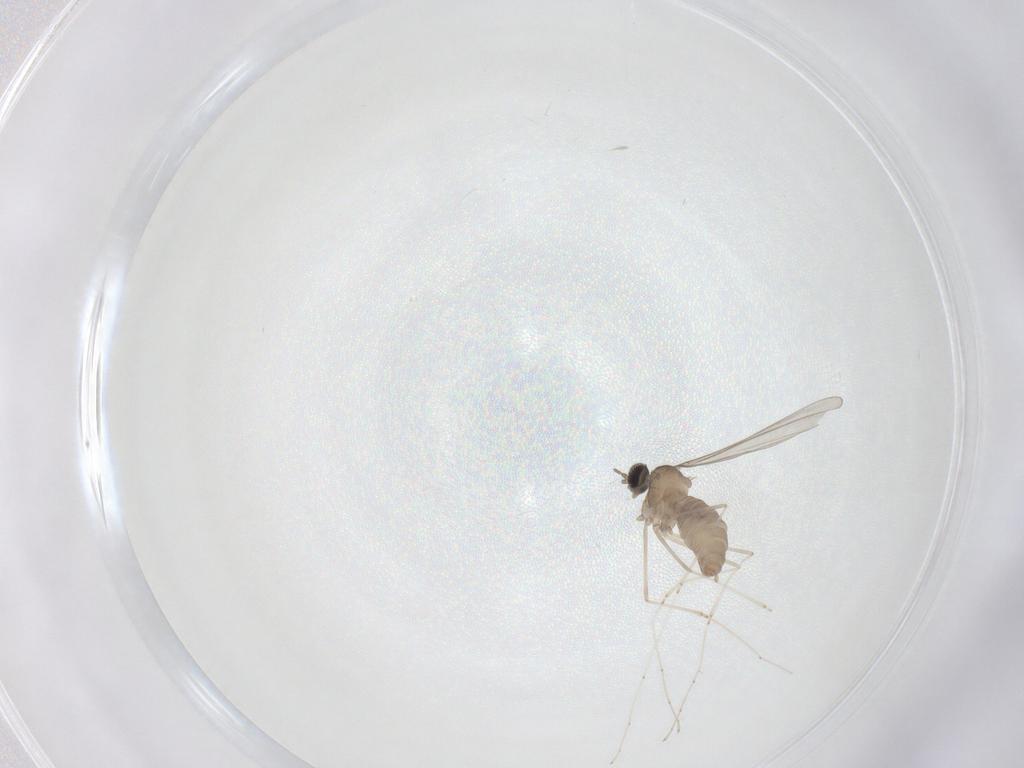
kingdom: Animalia
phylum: Arthropoda
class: Insecta
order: Diptera
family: Cecidomyiidae
